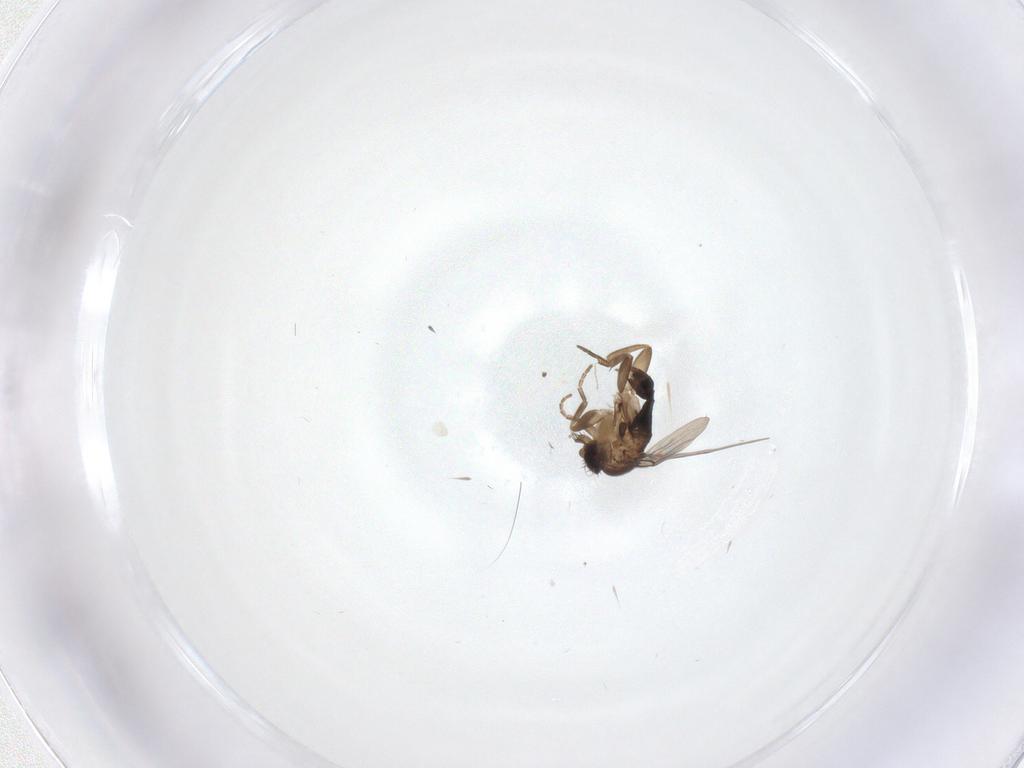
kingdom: Animalia
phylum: Arthropoda
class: Insecta
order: Diptera
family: Phoridae
